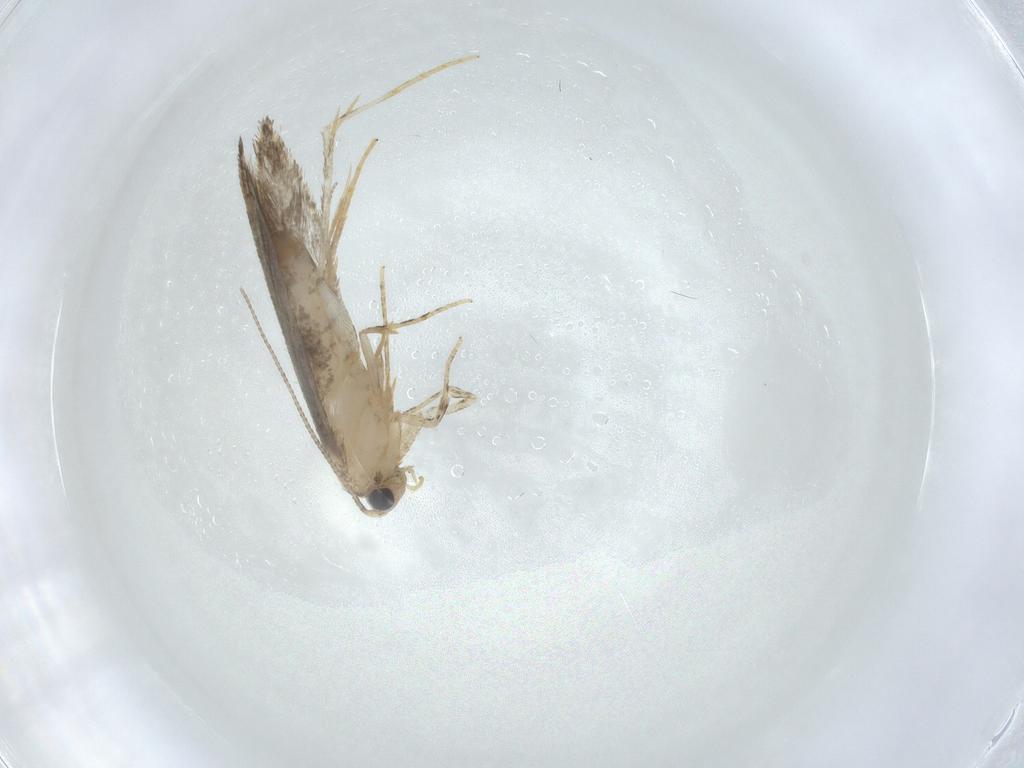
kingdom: Animalia
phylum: Arthropoda
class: Insecta
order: Lepidoptera
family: Tineidae
